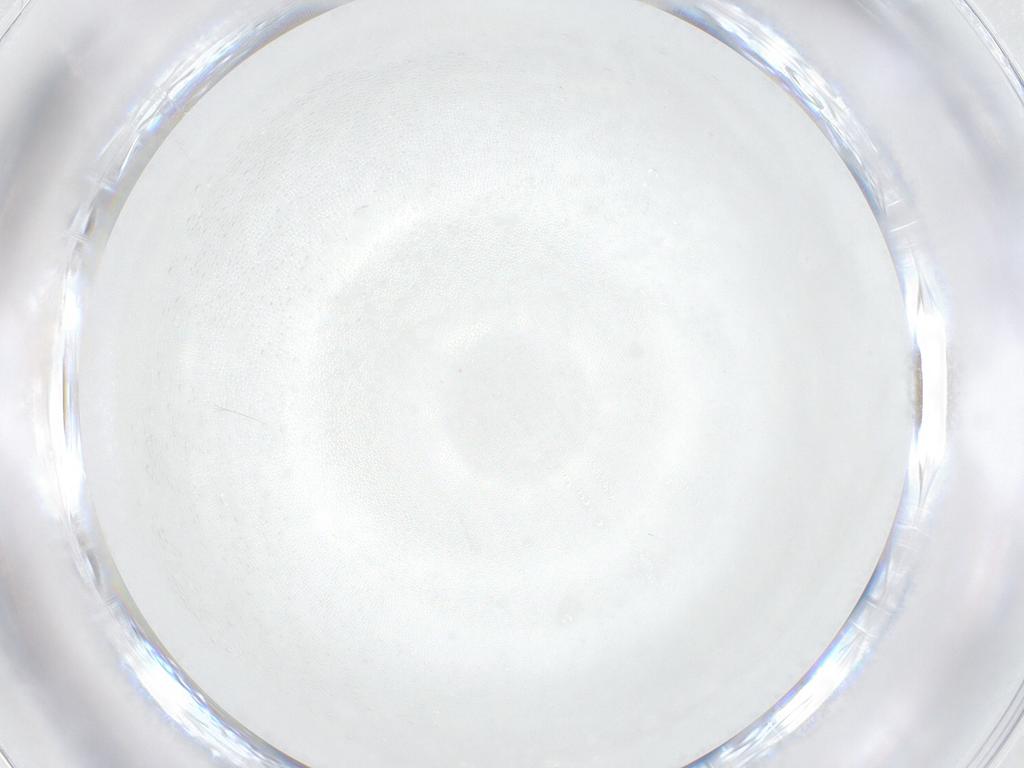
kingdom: Animalia
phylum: Arthropoda
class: Insecta
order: Diptera
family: Cecidomyiidae
